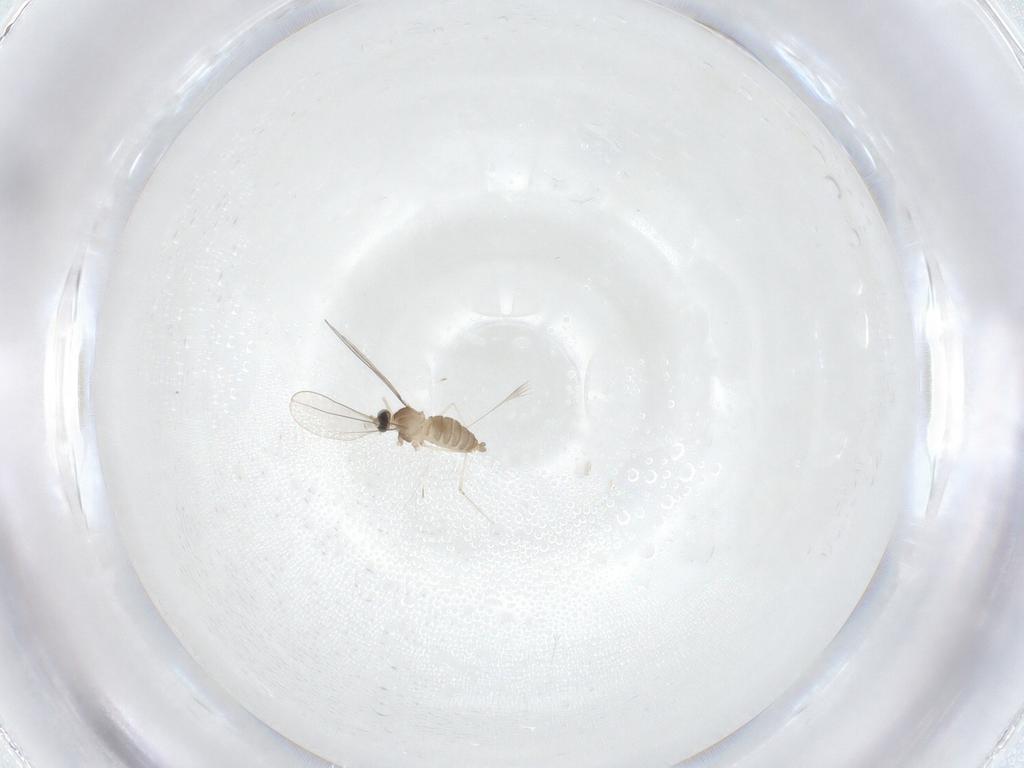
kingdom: Animalia
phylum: Arthropoda
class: Insecta
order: Diptera
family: Cecidomyiidae
